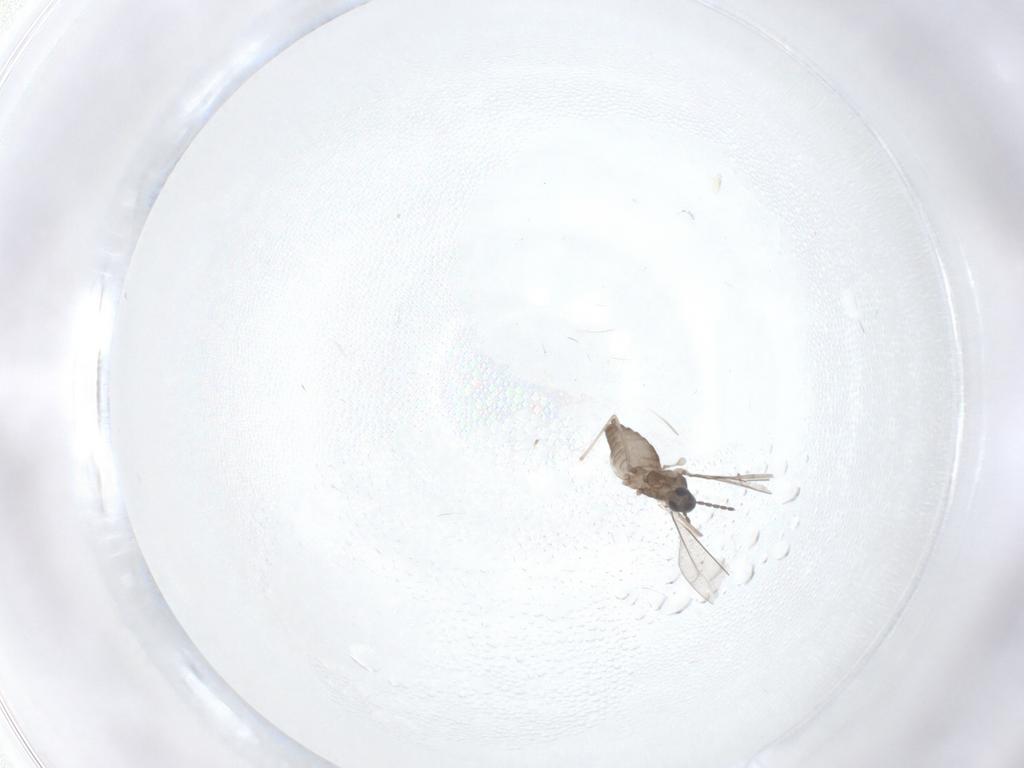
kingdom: Animalia
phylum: Arthropoda
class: Insecta
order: Diptera
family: Cecidomyiidae
